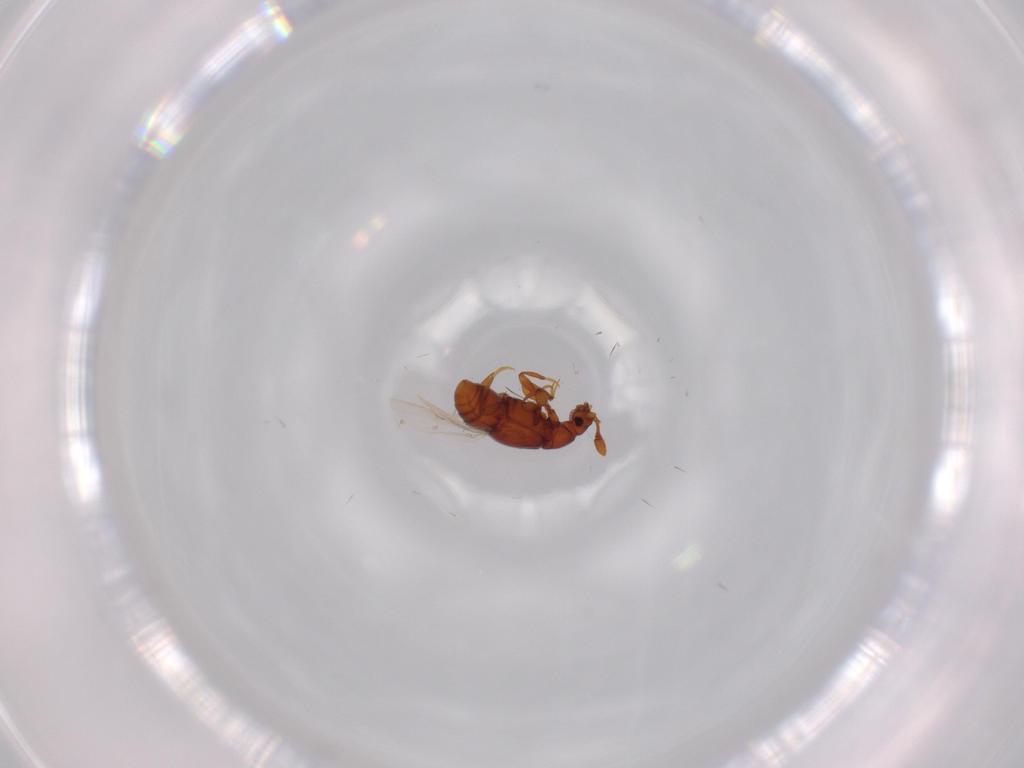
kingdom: Animalia
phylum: Arthropoda
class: Insecta
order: Coleoptera
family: Staphylinidae
